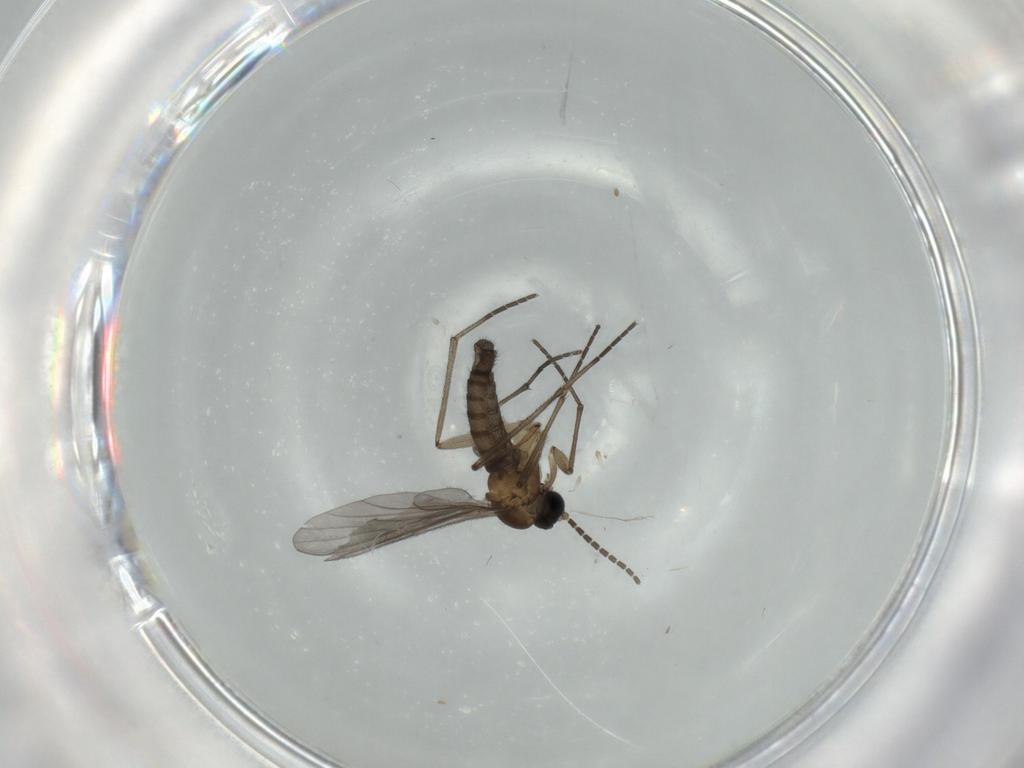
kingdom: Animalia
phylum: Arthropoda
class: Insecta
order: Diptera
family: Sciaridae
